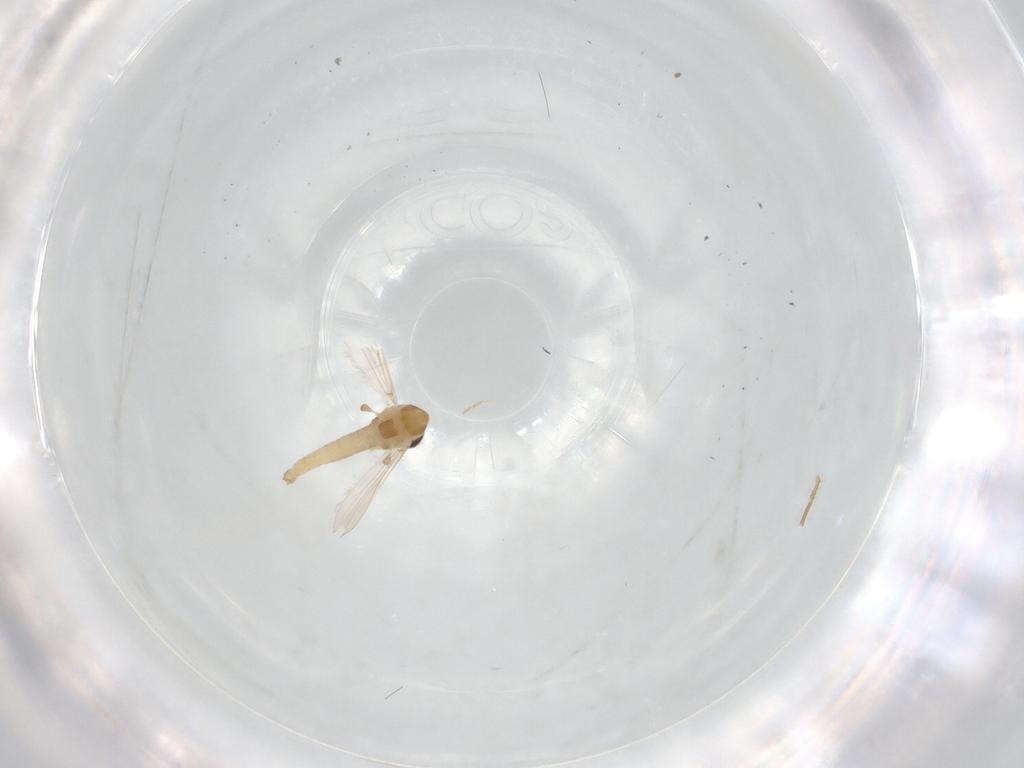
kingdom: Animalia
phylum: Arthropoda
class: Insecta
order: Diptera
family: Chironomidae
